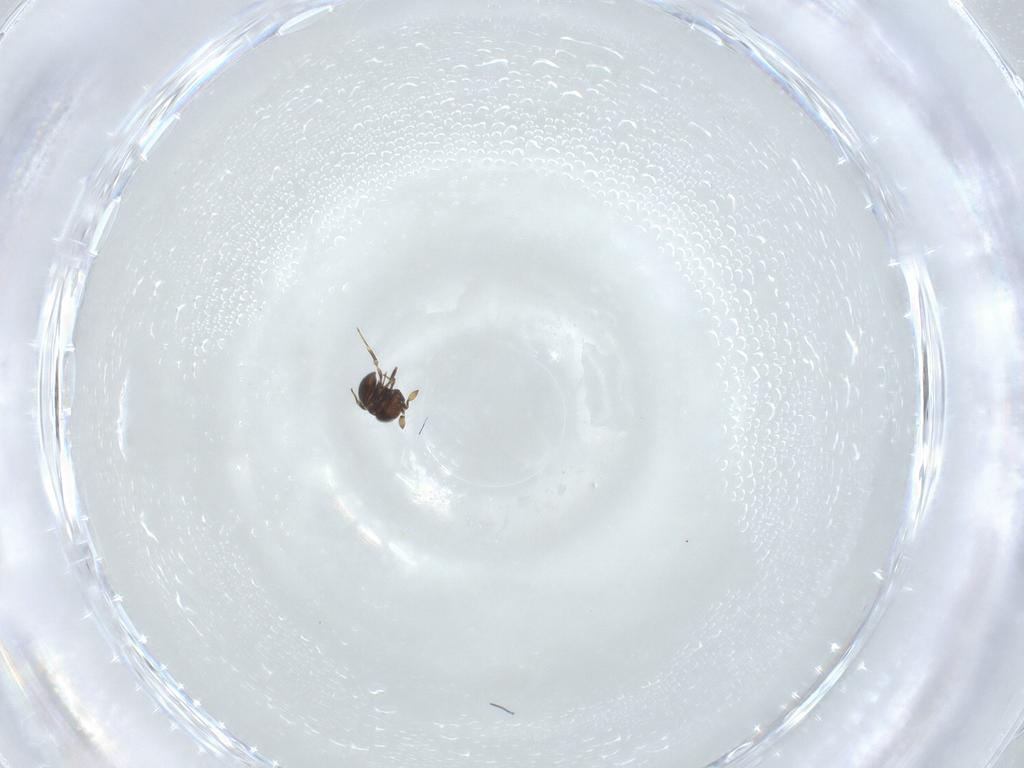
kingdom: Animalia
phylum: Arthropoda
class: Insecta
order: Hymenoptera
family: Scelionidae
